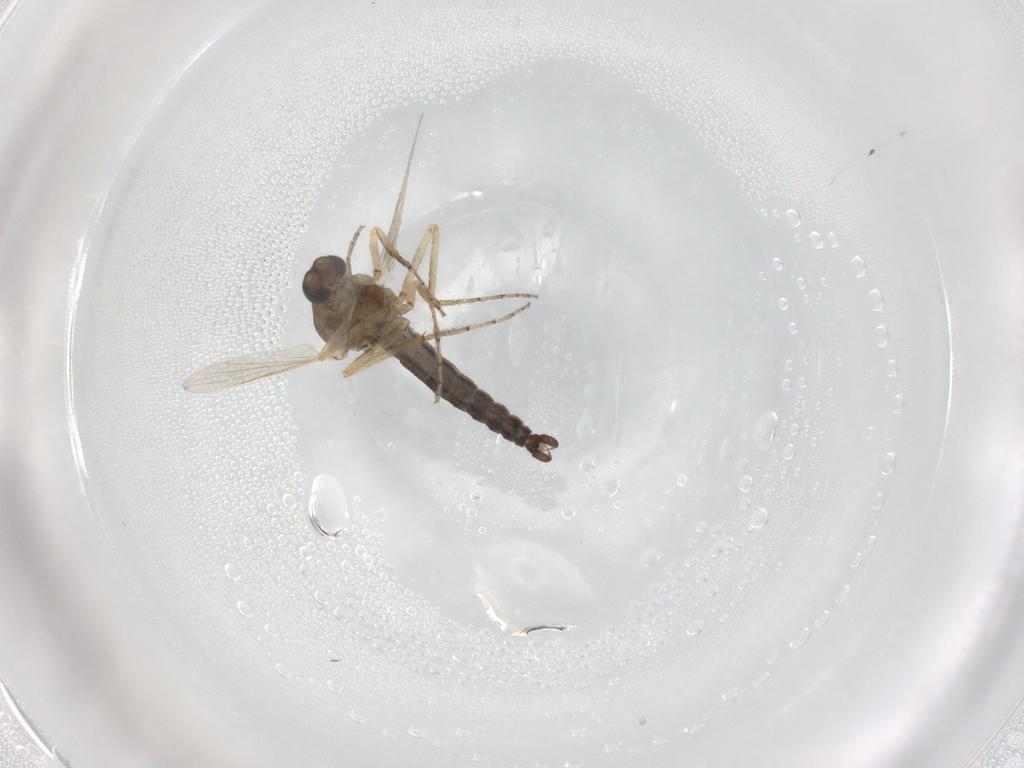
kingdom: Animalia
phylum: Arthropoda
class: Insecta
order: Diptera
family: Ceratopogonidae
